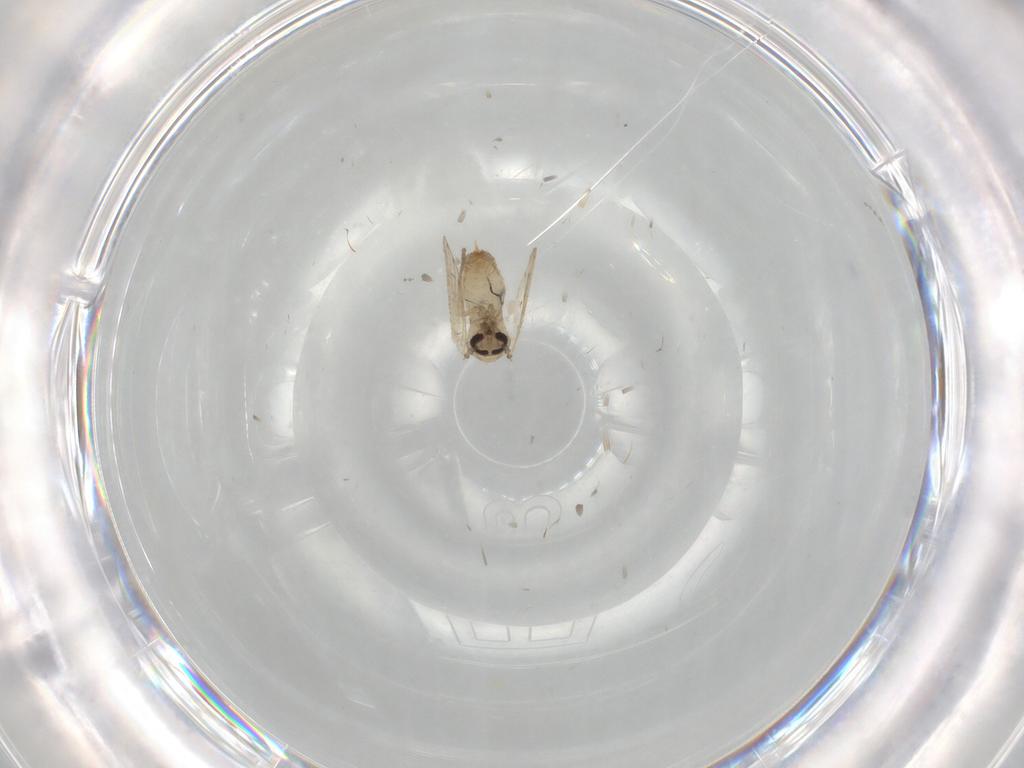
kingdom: Animalia
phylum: Arthropoda
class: Insecta
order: Diptera
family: Psychodidae
